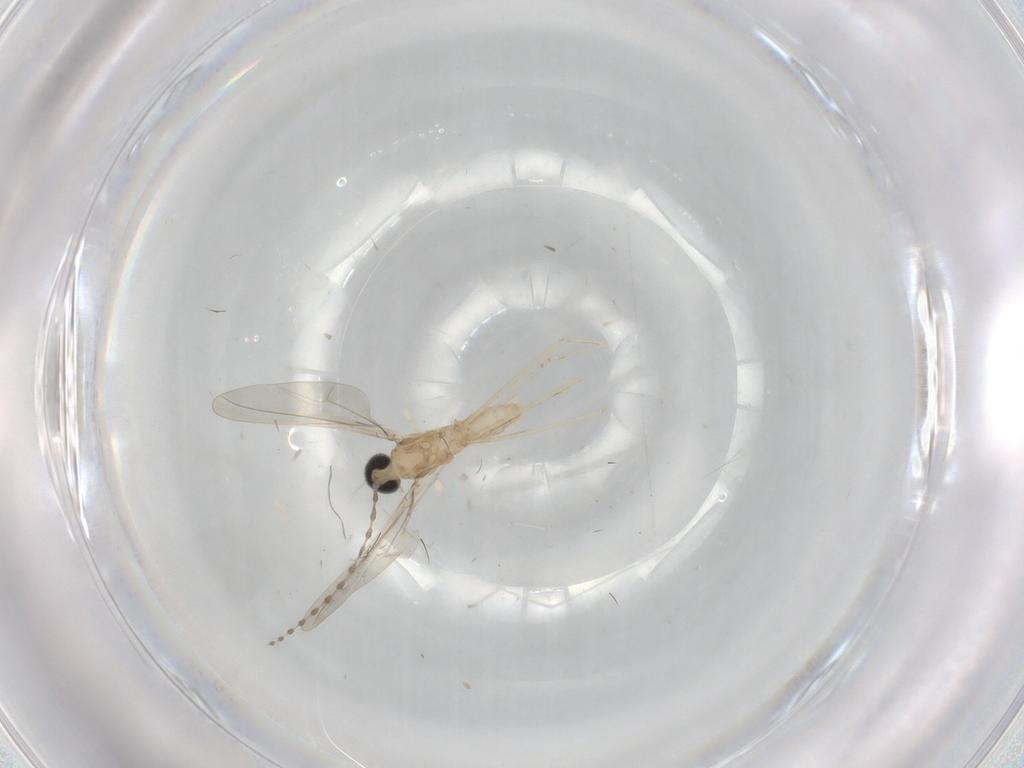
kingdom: Animalia
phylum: Arthropoda
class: Insecta
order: Diptera
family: Cecidomyiidae
